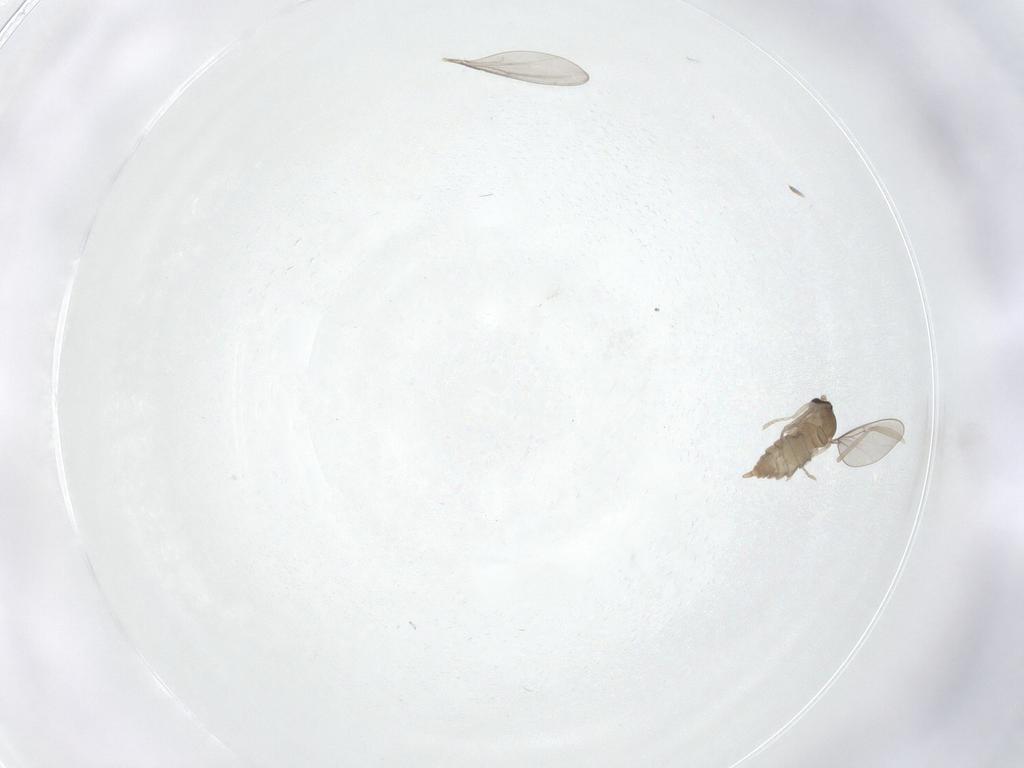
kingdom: Animalia
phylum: Arthropoda
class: Insecta
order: Diptera
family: Cecidomyiidae
